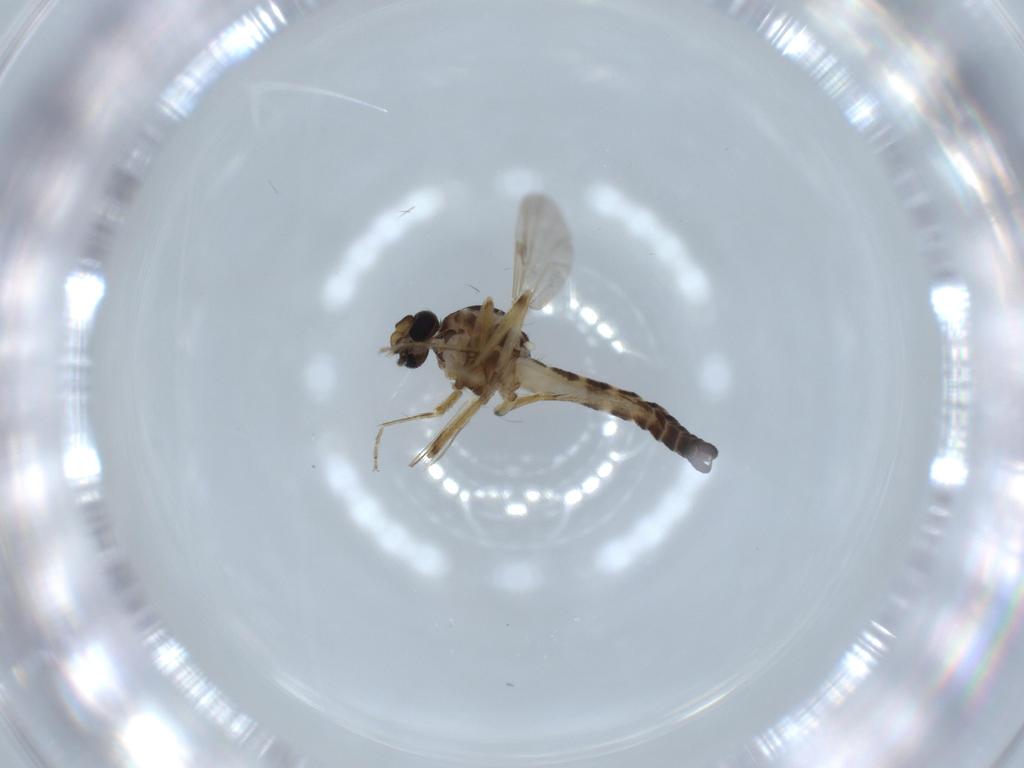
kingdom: Animalia
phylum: Arthropoda
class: Insecta
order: Diptera
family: Ceratopogonidae
